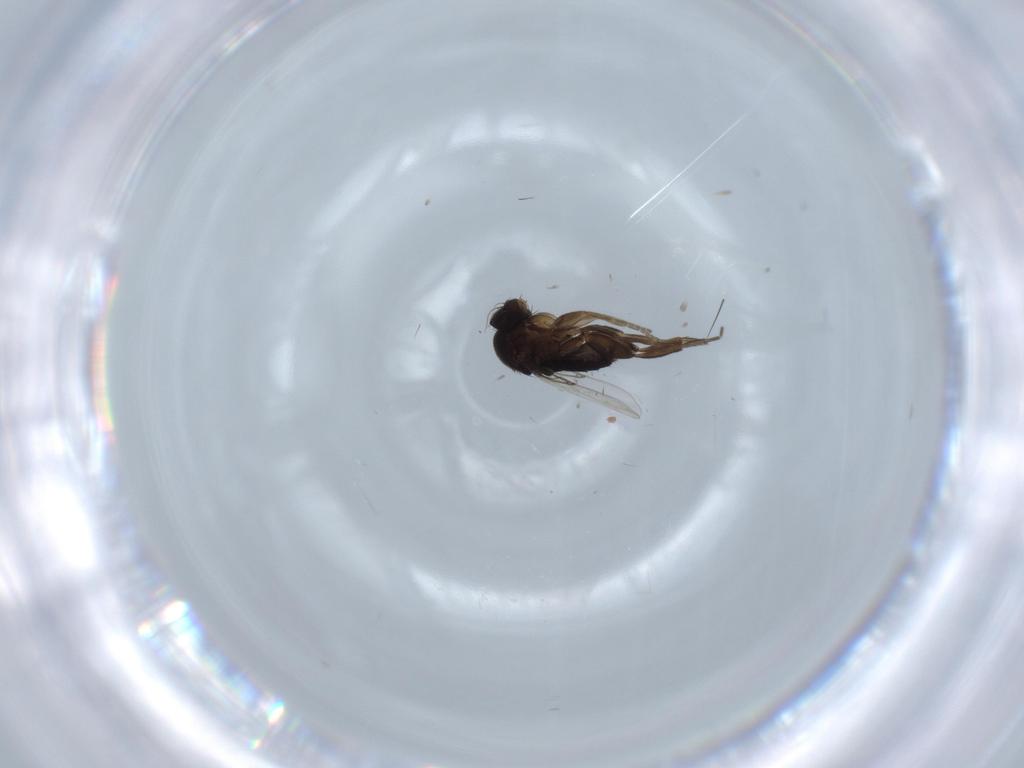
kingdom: Animalia
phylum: Arthropoda
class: Insecta
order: Diptera
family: Phoridae
